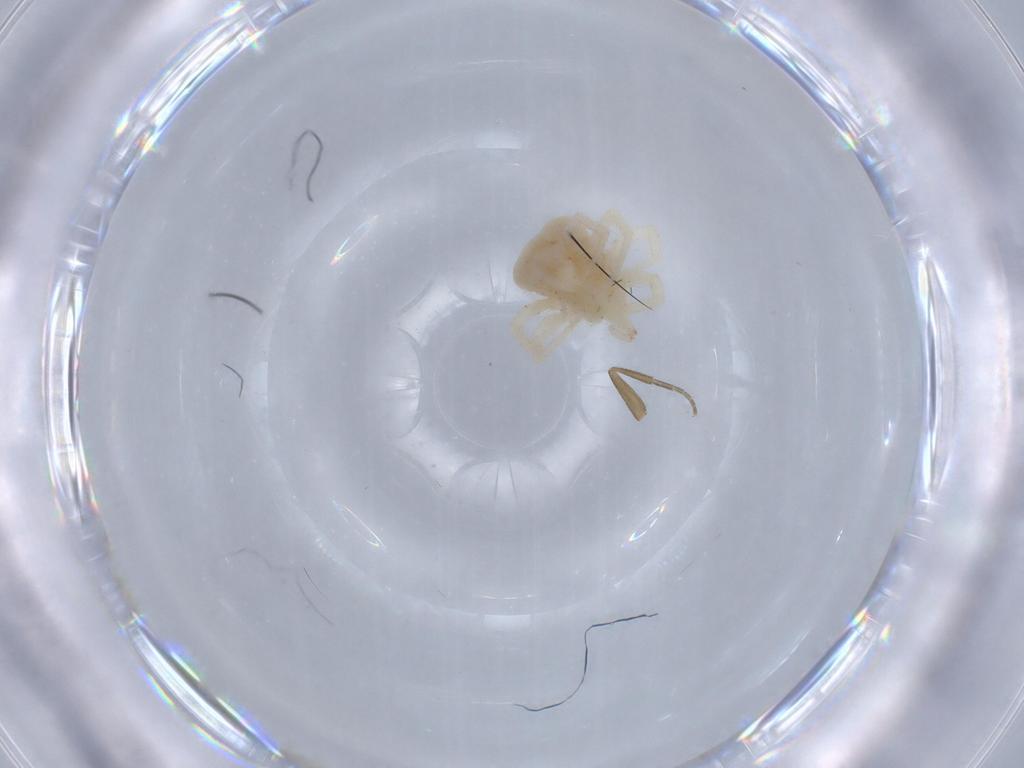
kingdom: Animalia
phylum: Arthropoda
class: Arachnida
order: Trombidiformes
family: Anystidae
